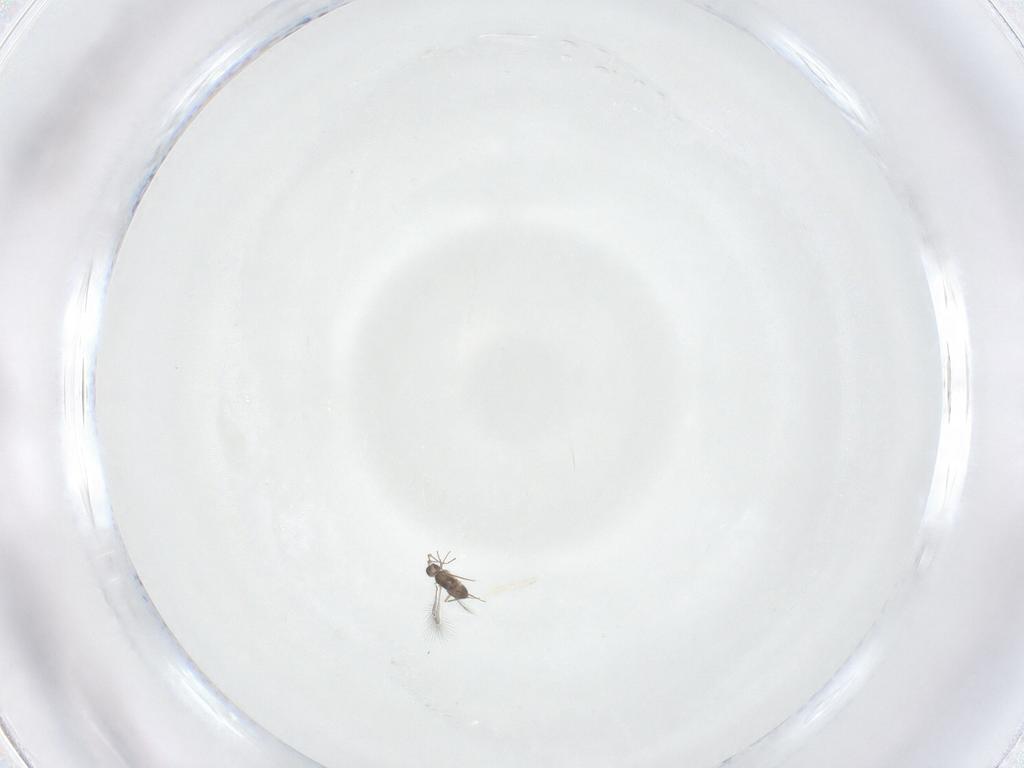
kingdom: Animalia
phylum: Arthropoda
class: Insecta
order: Hymenoptera
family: Mymaridae
